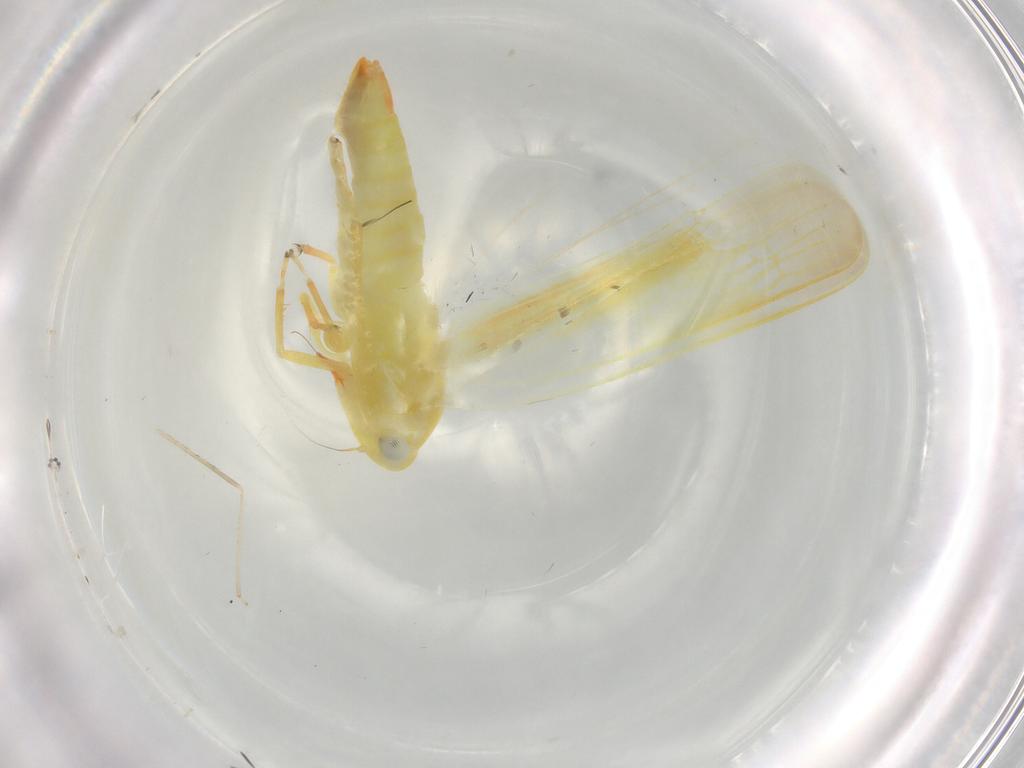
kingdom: Animalia
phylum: Arthropoda
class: Insecta
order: Hemiptera
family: Cicadellidae
